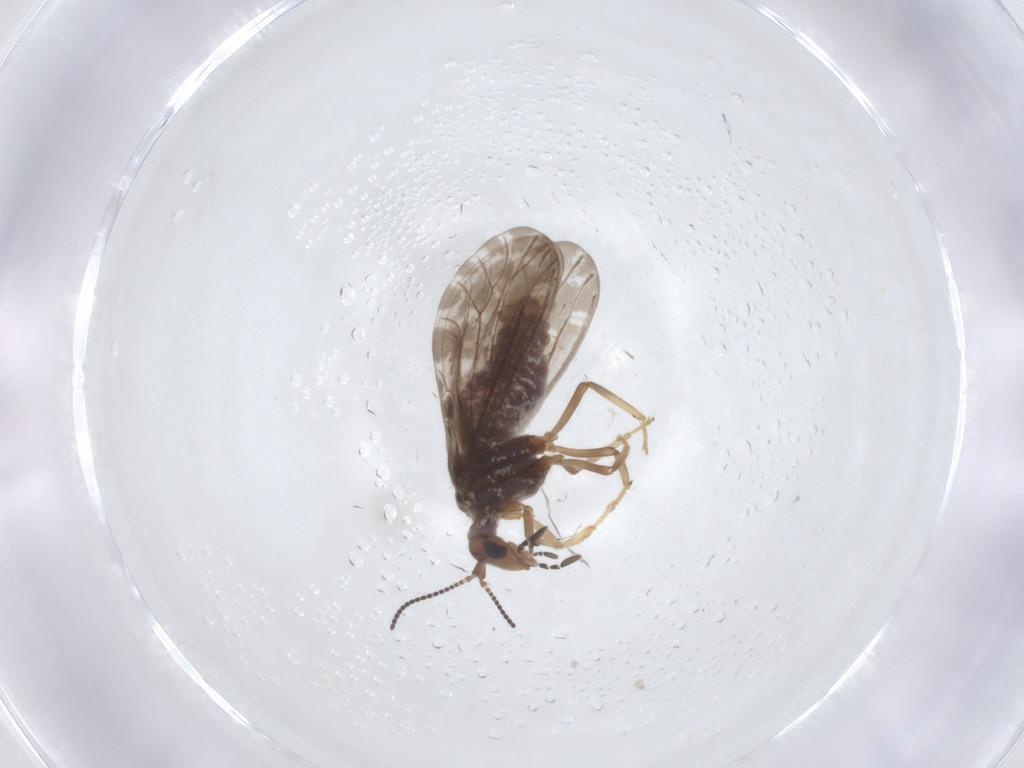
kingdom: Animalia
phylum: Arthropoda
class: Insecta
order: Neuroptera
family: Coniopterygidae
